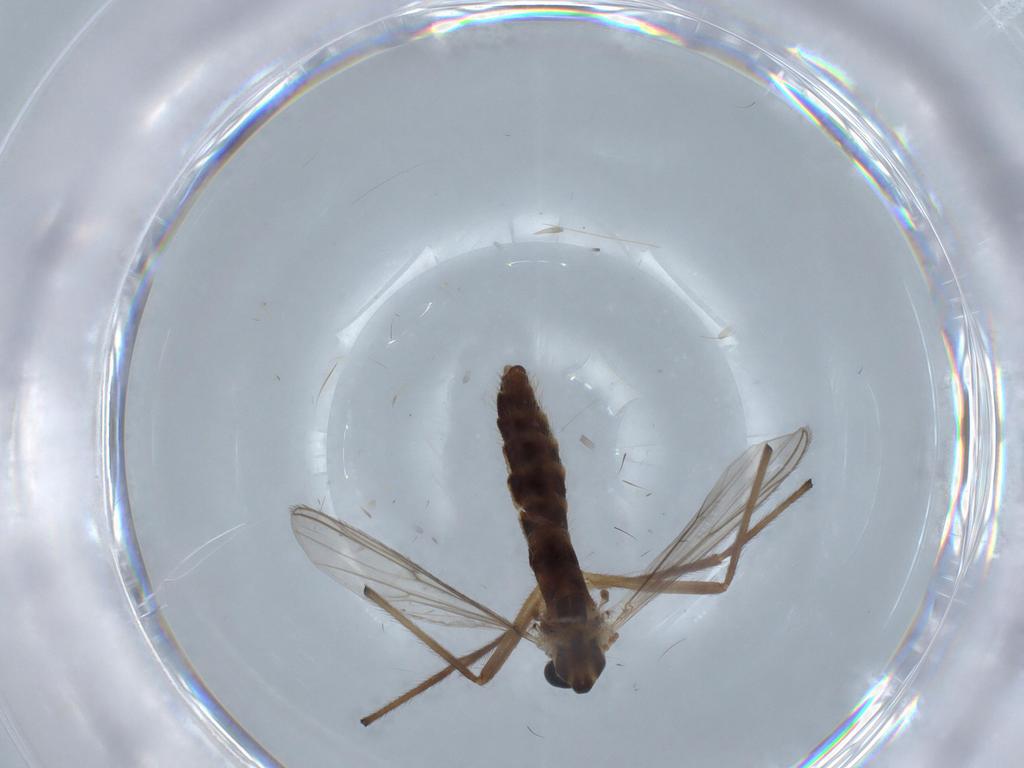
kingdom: Animalia
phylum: Arthropoda
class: Insecta
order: Diptera
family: Chironomidae
